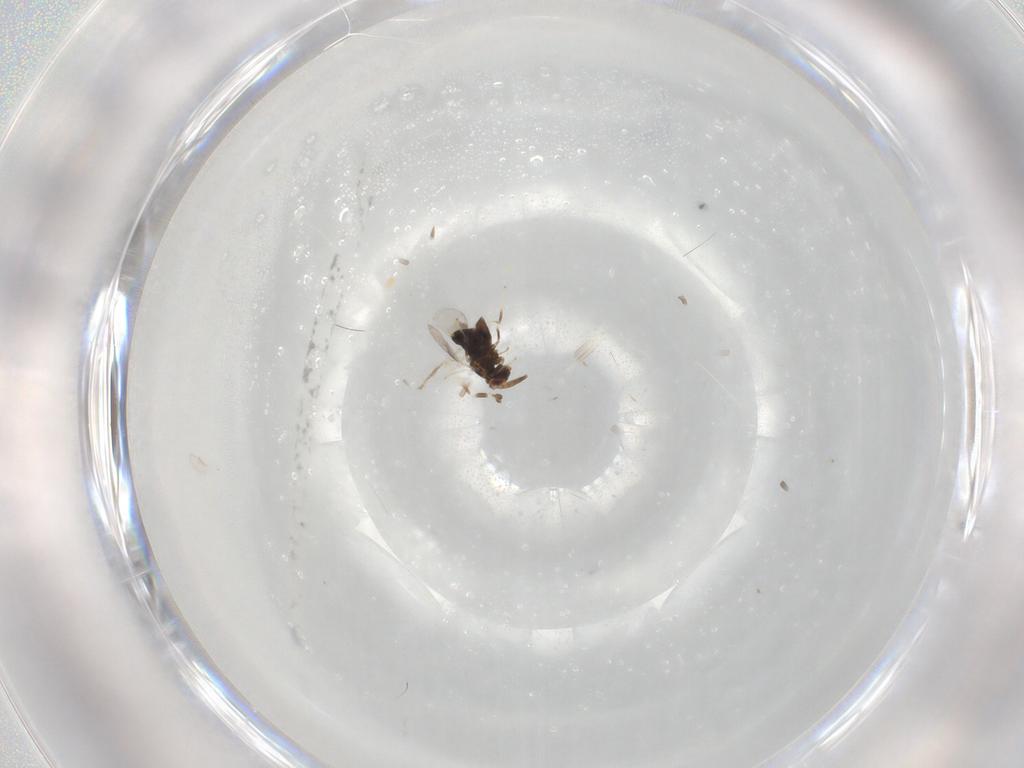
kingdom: Animalia
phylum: Arthropoda
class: Insecta
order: Hymenoptera
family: Aphelinidae
